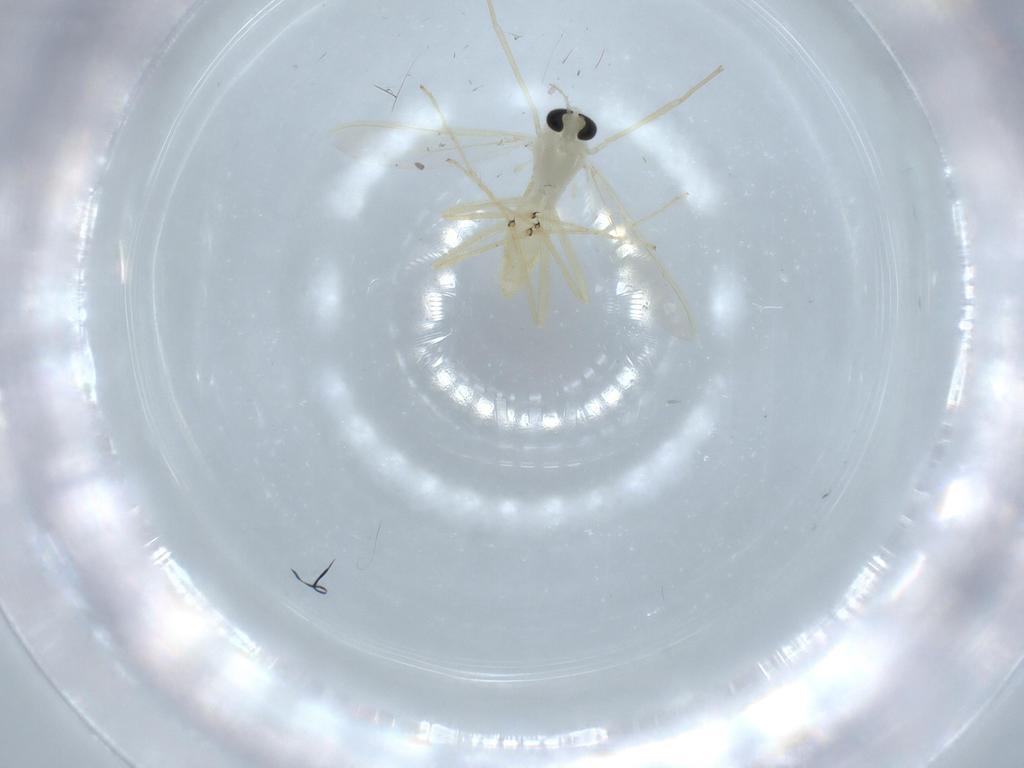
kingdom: Animalia
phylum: Arthropoda
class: Insecta
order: Diptera
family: Chironomidae
